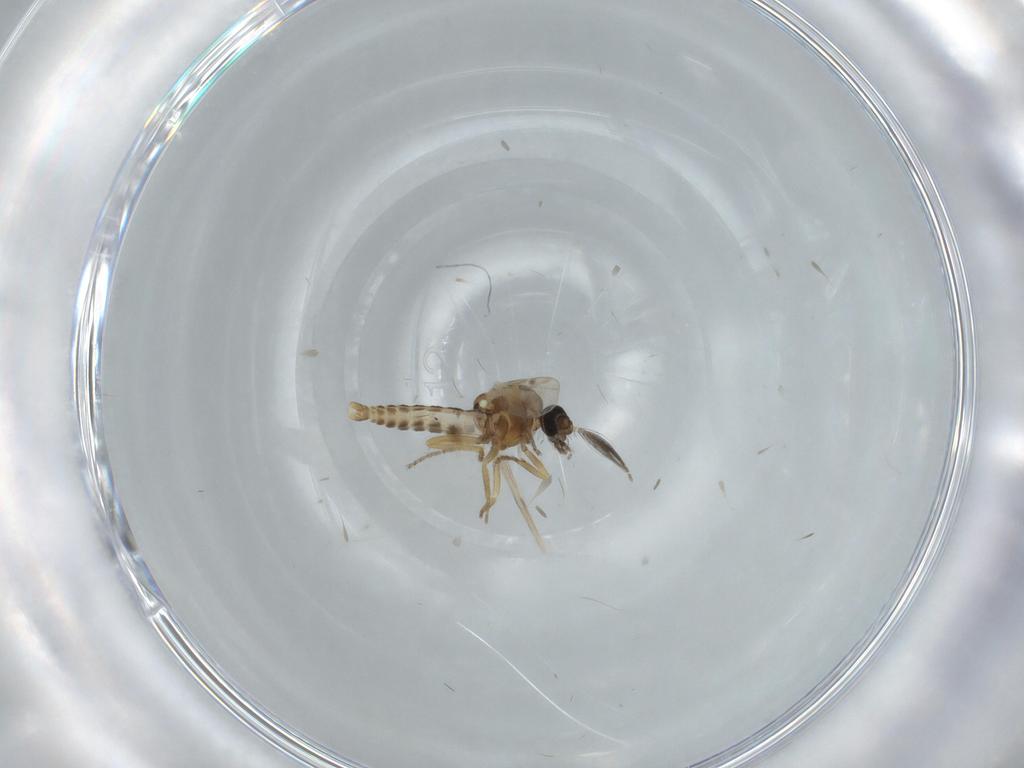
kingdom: Animalia
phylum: Arthropoda
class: Insecta
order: Diptera
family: Ceratopogonidae
